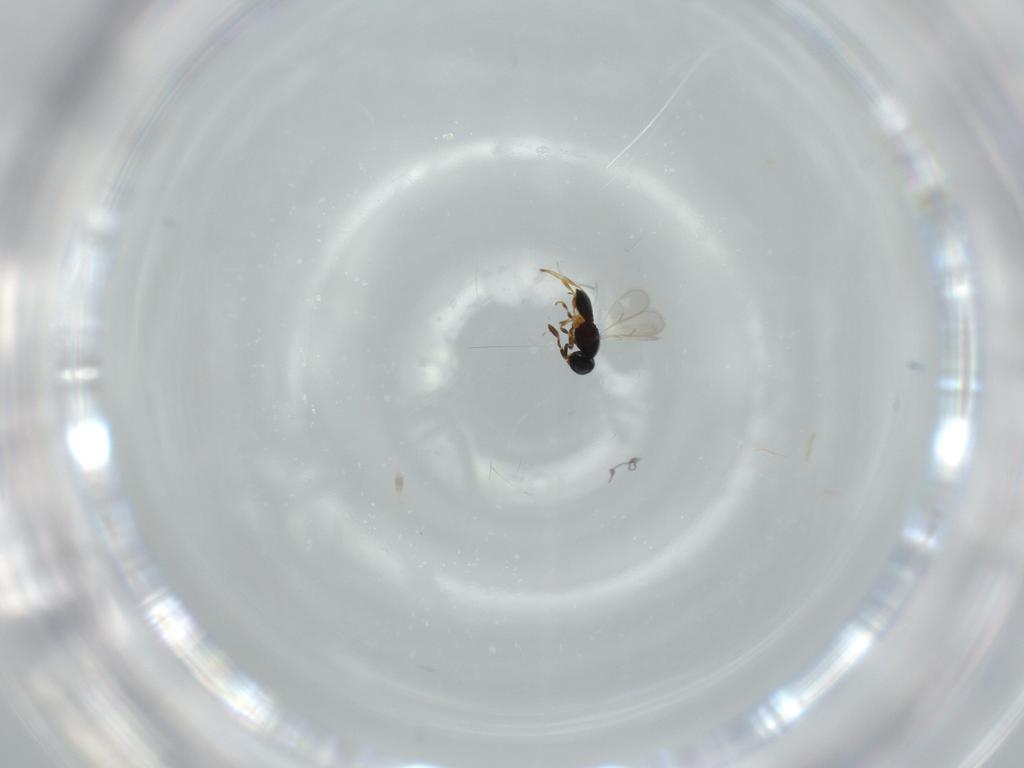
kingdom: Animalia
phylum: Arthropoda
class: Insecta
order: Hymenoptera
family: Scelionidae
